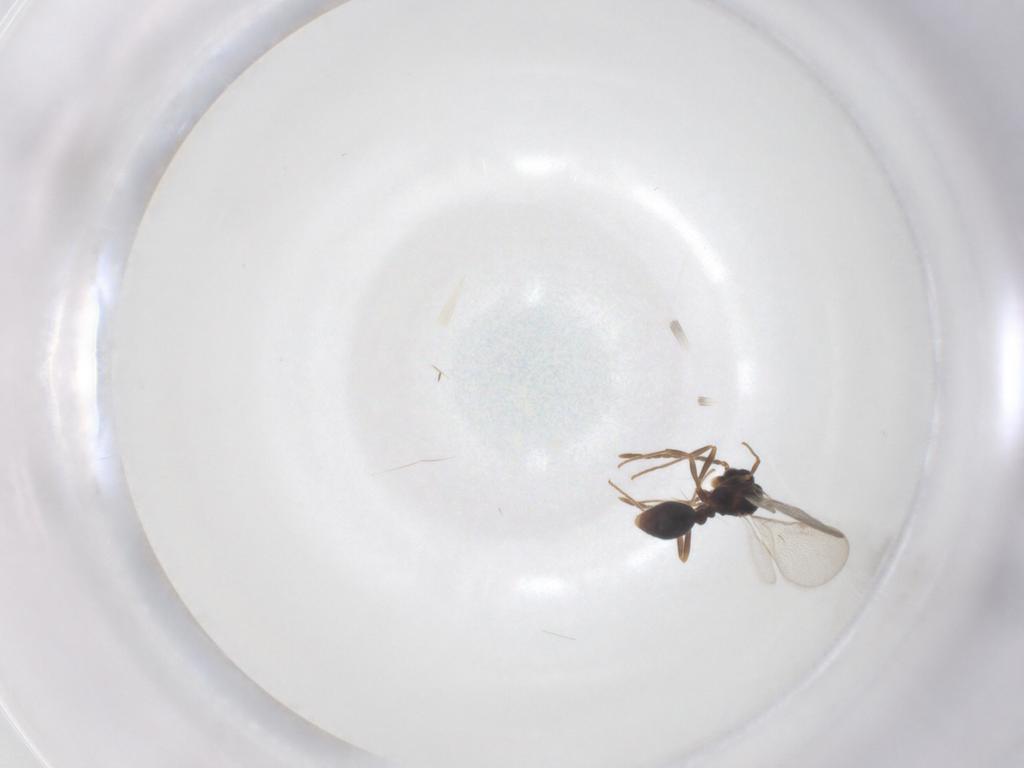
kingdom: Animalia
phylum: Arthropoda
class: Insecta
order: Hymenoptera
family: Formicidae
